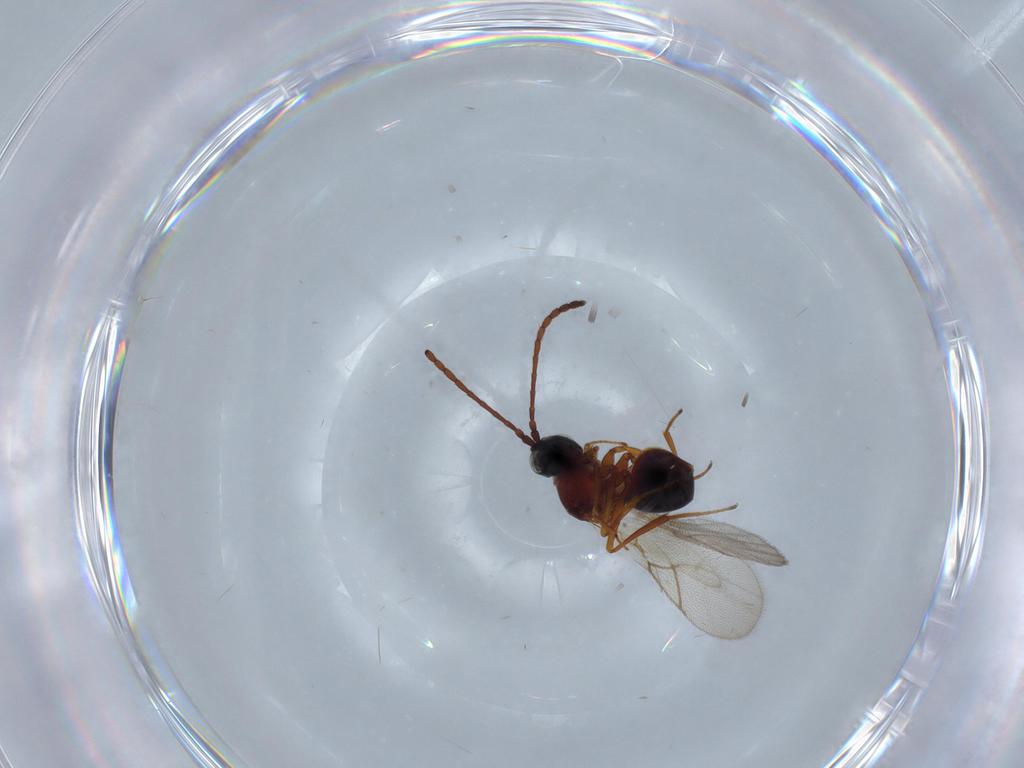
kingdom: Animalia
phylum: Arthropoda
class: Insecta
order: Hymenoptera
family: Figitidae
